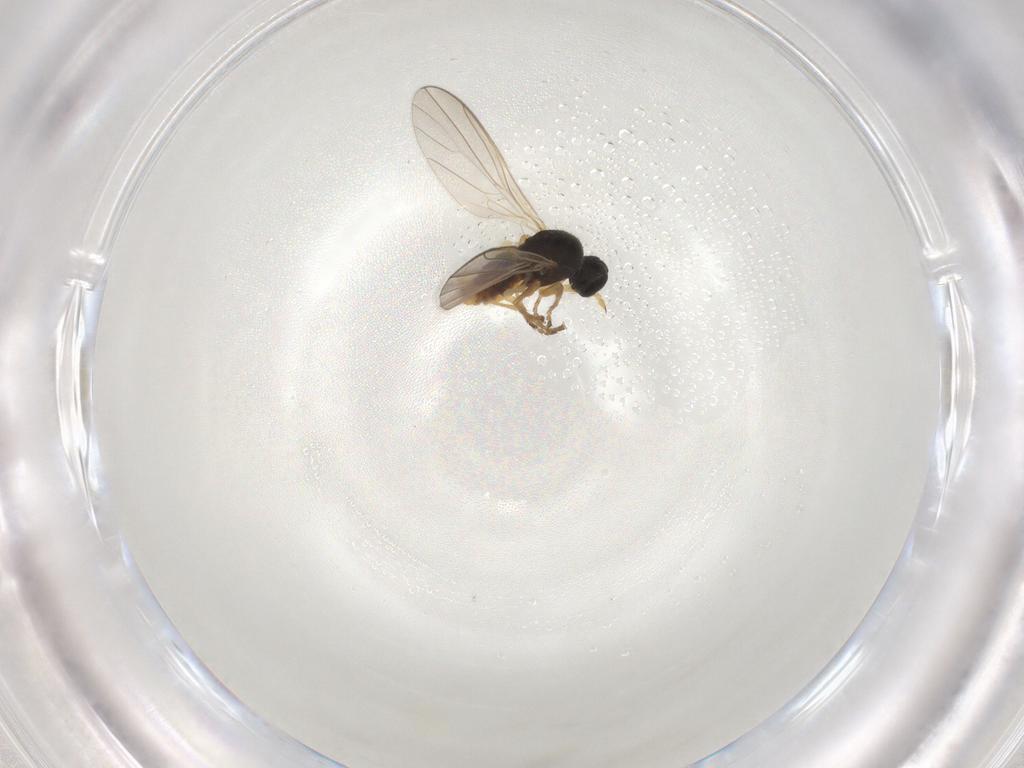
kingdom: Animalia
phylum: Arthropoda
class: Insecta
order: Diptera
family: Hybotidae
